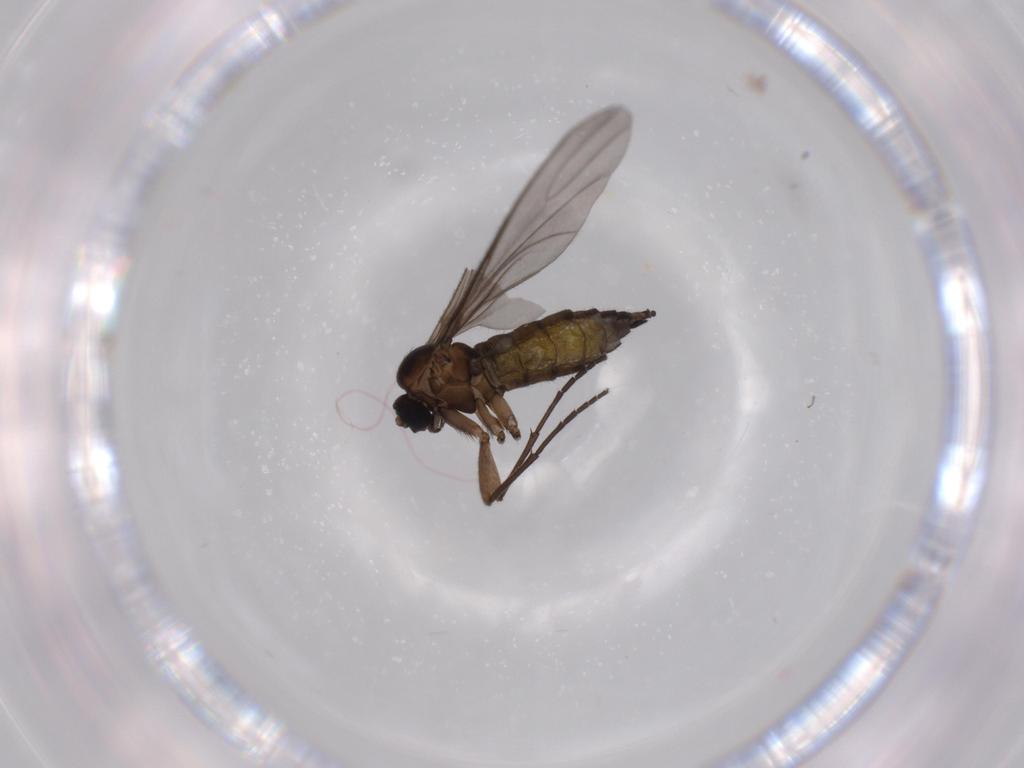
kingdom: Animalia
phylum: Arthropoda
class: Insecta
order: Diptera
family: Sciaridae
